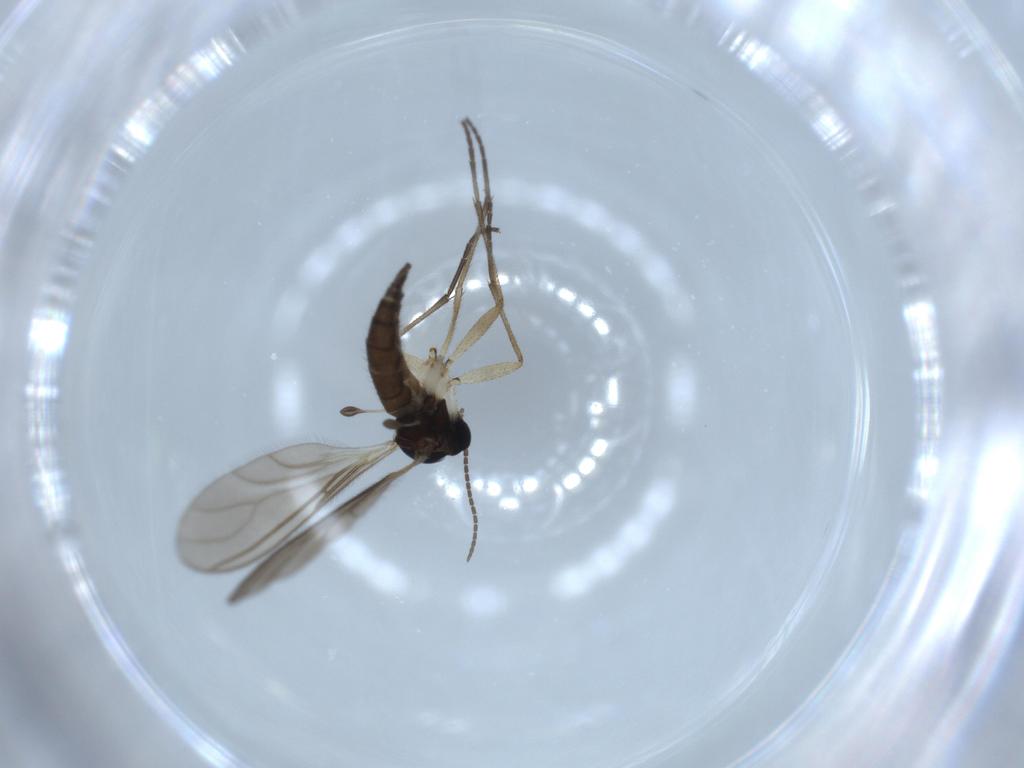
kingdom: Animalia
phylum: Arthropoda
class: Insecta
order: Diptera
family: Sciaridae
